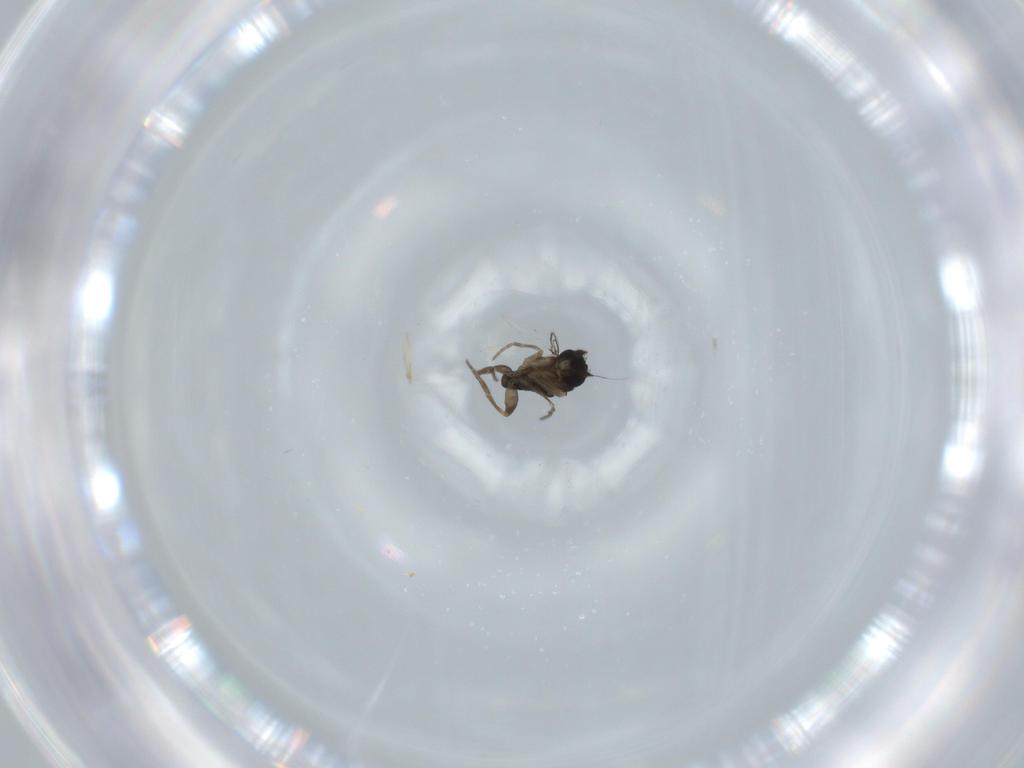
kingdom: Animalia
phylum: Arthropoda
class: Insecta
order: Diptera
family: Phoridae
